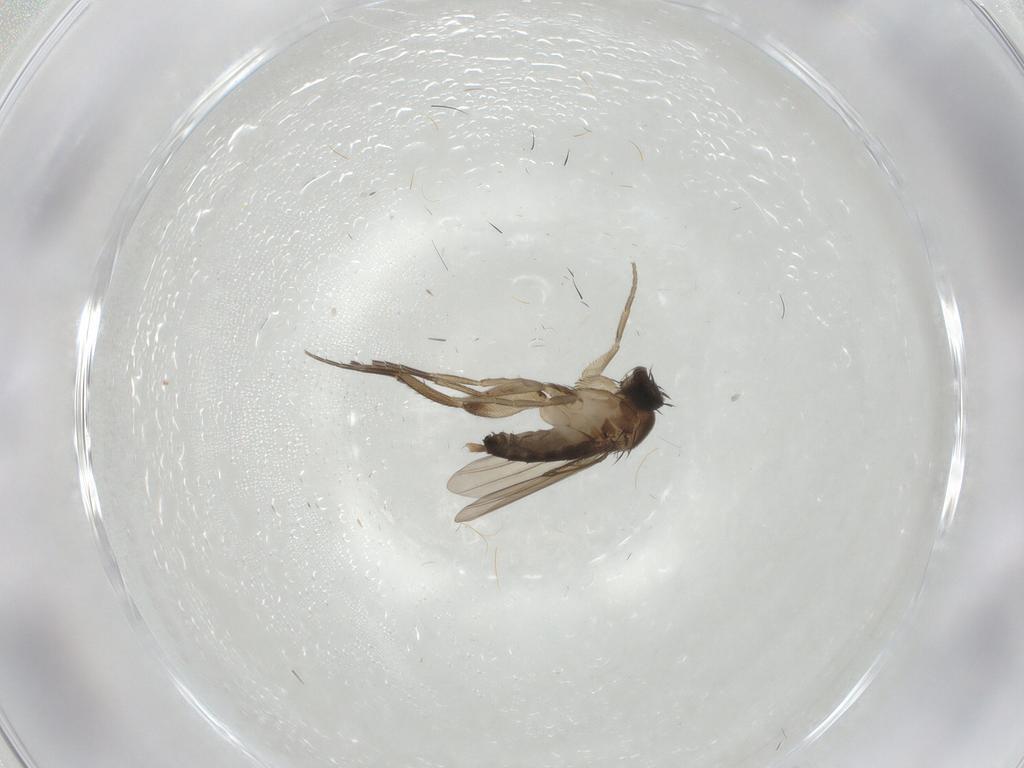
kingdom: Animalia
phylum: Arthropoda
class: Insecta
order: Diptera
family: Phoridae
